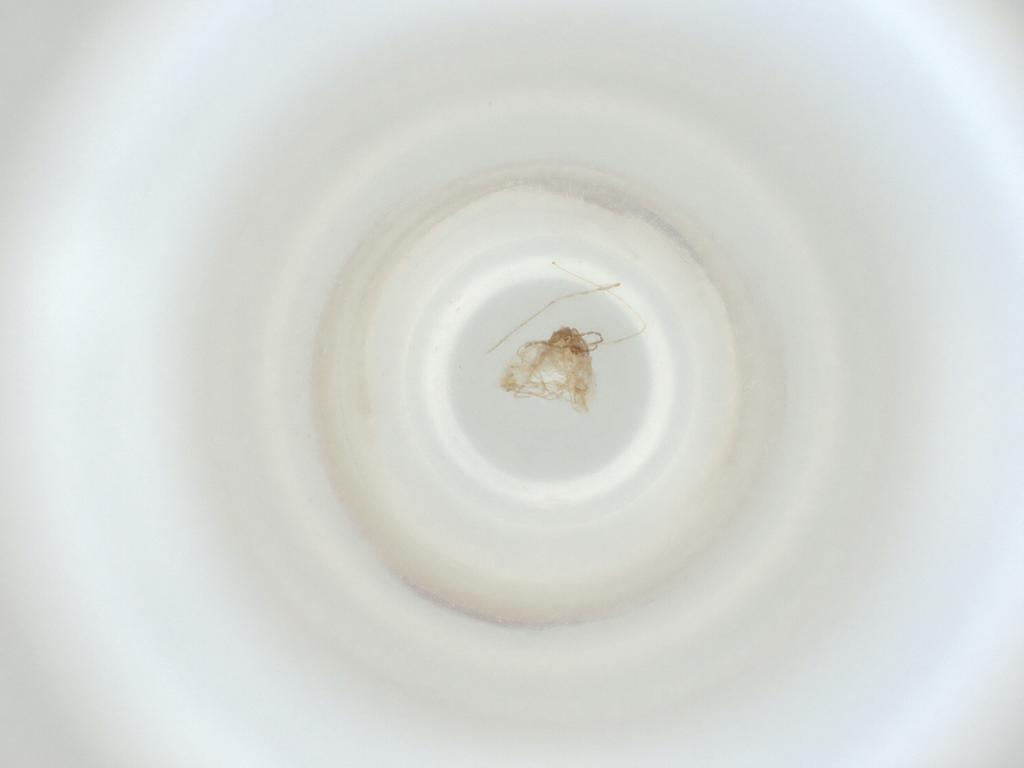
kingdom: Animalia
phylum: Arthropoda
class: Insecta
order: Diptera
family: Cecidomyiidae
